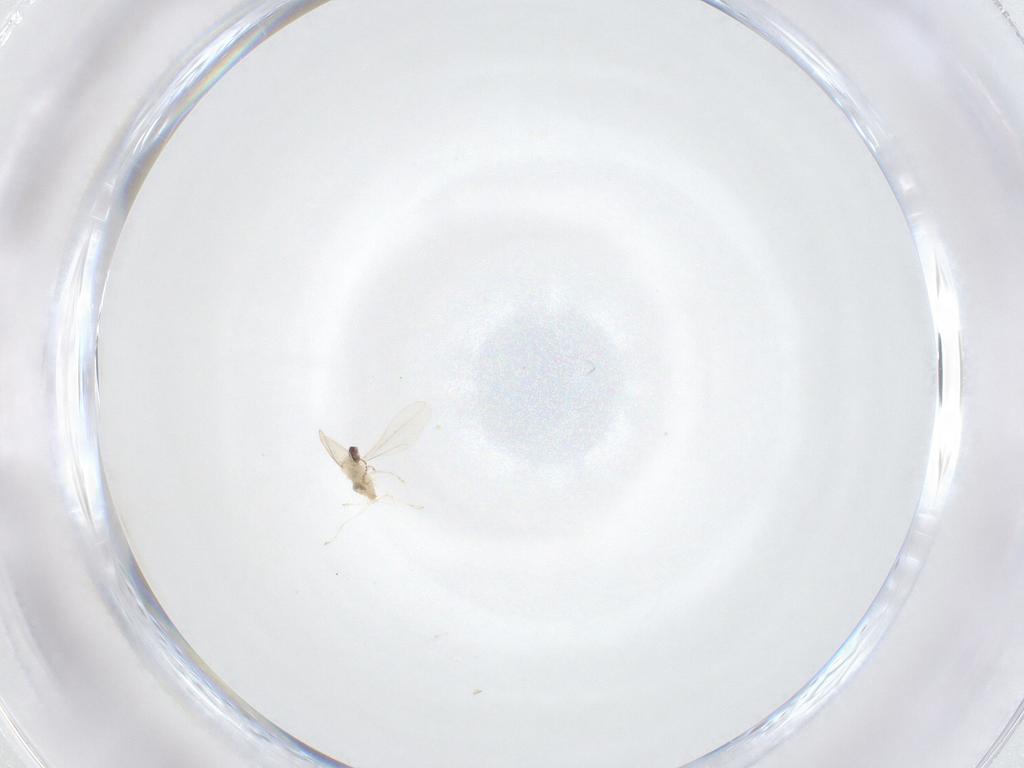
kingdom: Animalia
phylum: Arthropoda
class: Insecta
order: Diptera
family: Cecidomyiidae
